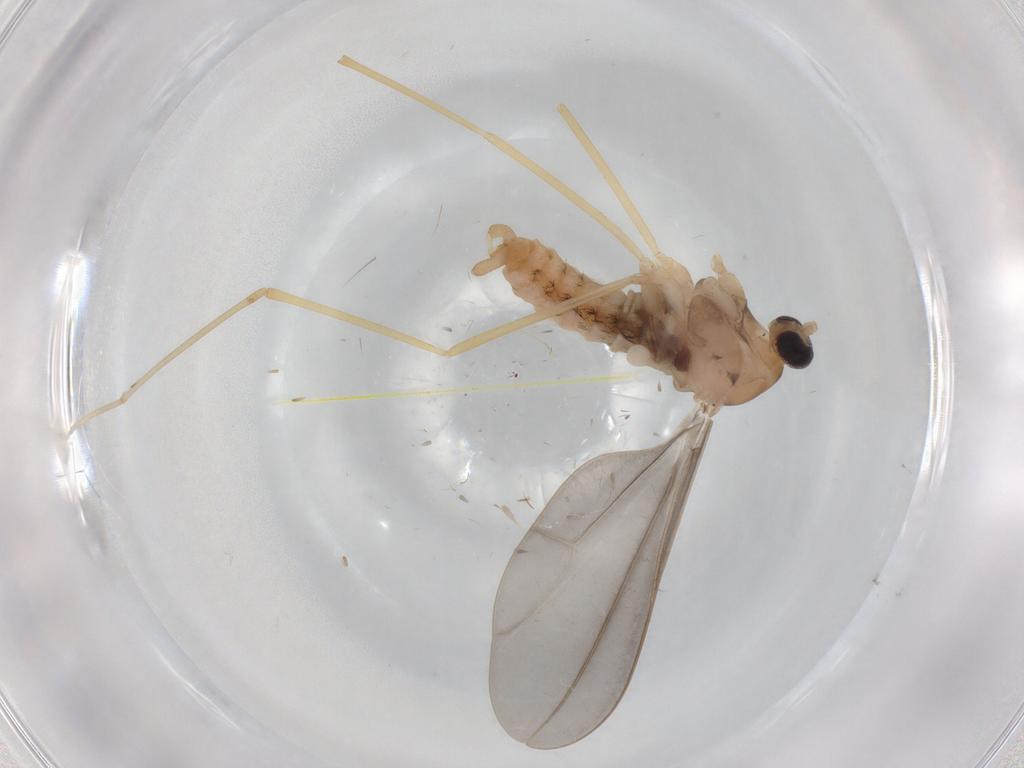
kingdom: Animalia
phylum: Arthropoda
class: Insecta
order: Diptera
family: Cecidomyiidae
